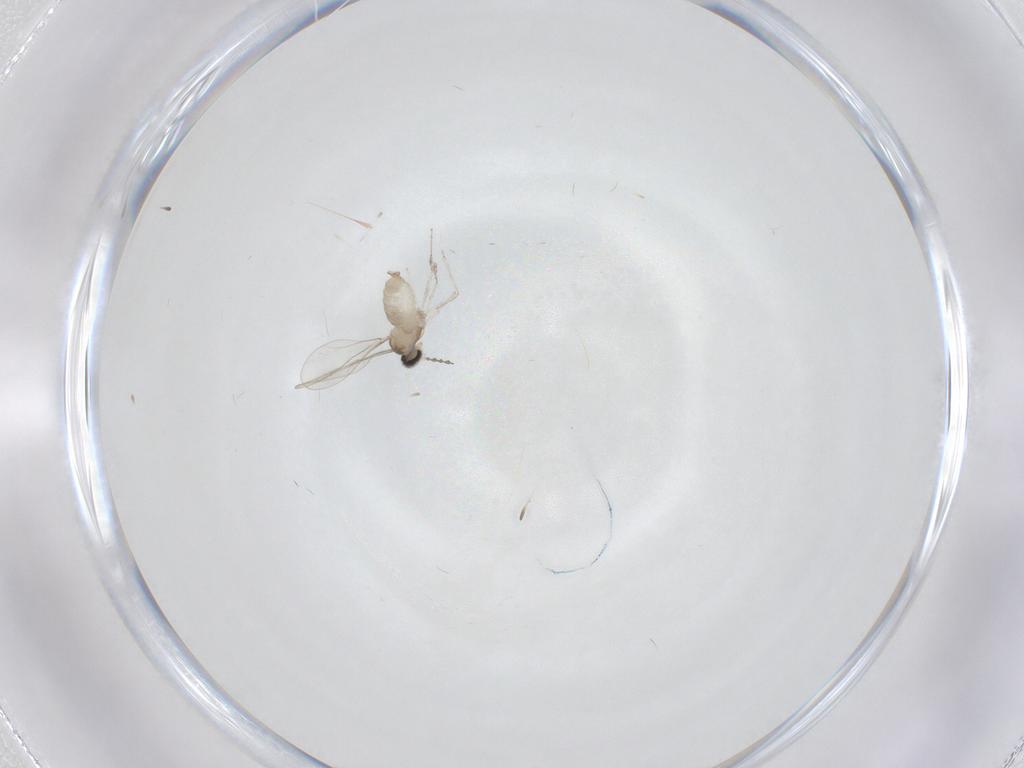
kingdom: Animalia
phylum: Arthropoda
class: Insecta
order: Diptera
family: Cecidomyiidae
